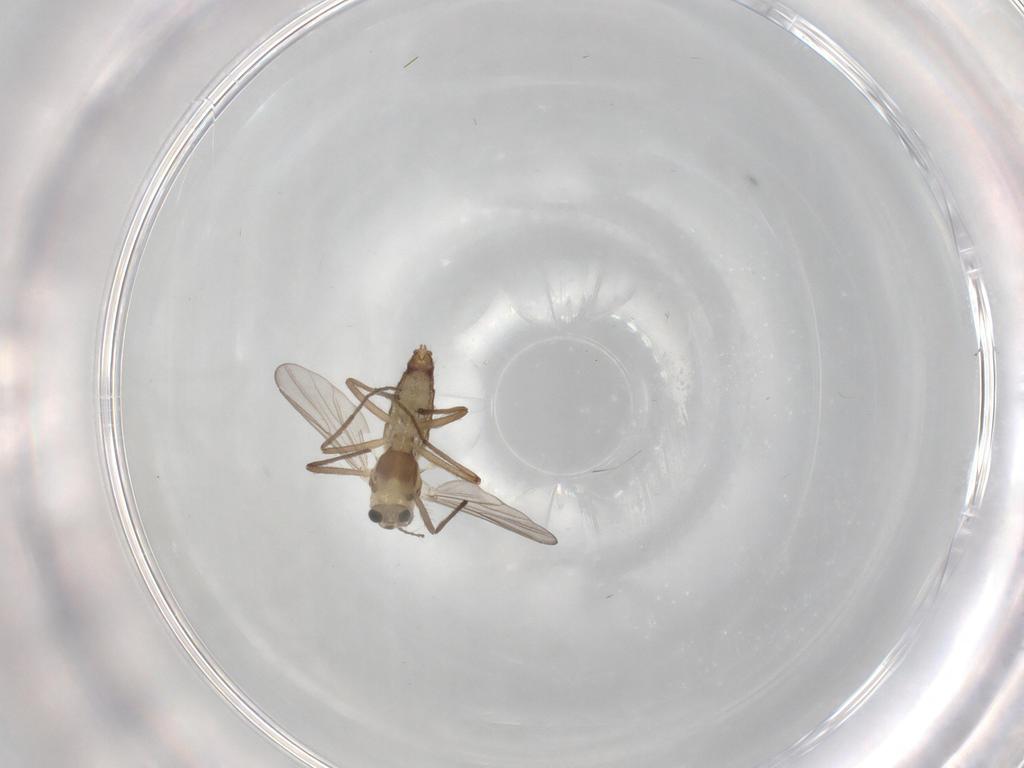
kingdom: Animalia
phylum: Arthropoda
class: Insecta
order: Diptera
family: Chironomidae
